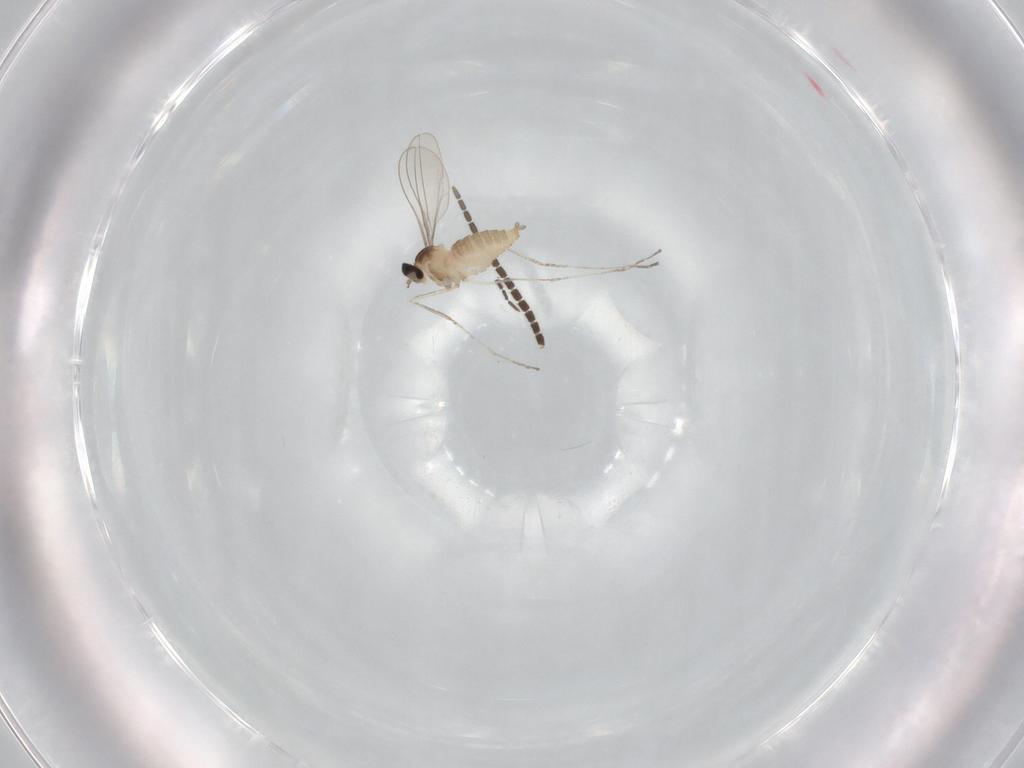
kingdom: Animalia
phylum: Arthropoda
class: Insecta
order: Diptera
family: Cecidomyiidae
